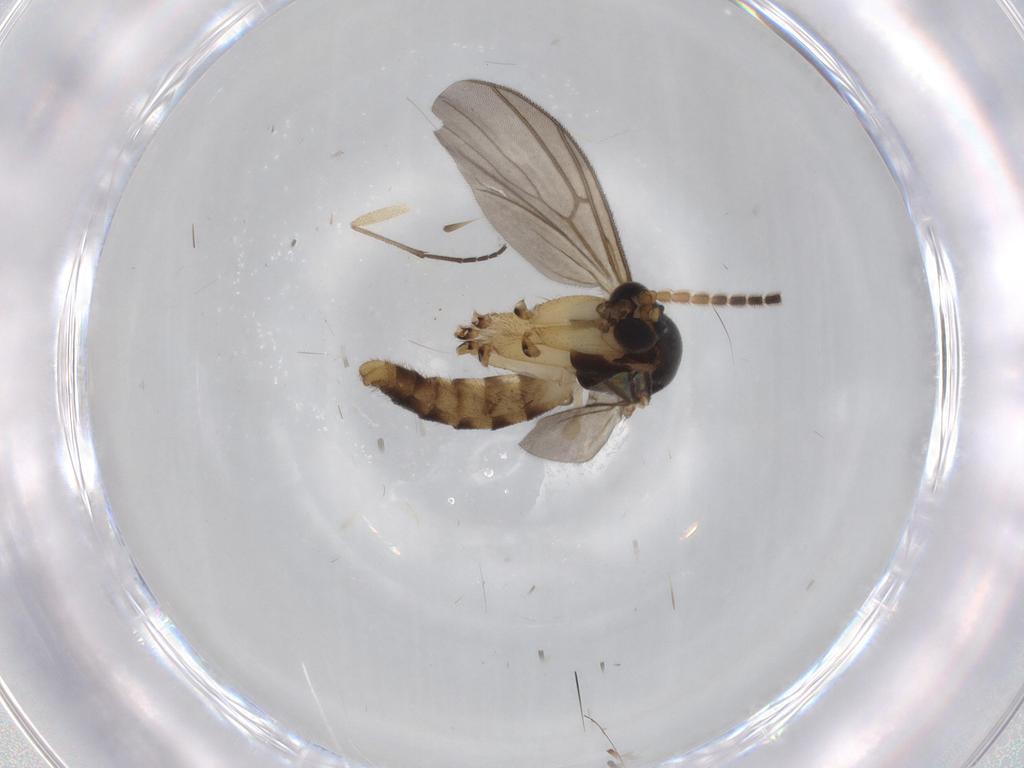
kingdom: Animalia
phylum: Arthropoda
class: Insecta
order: Diptera
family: Sciaridae
